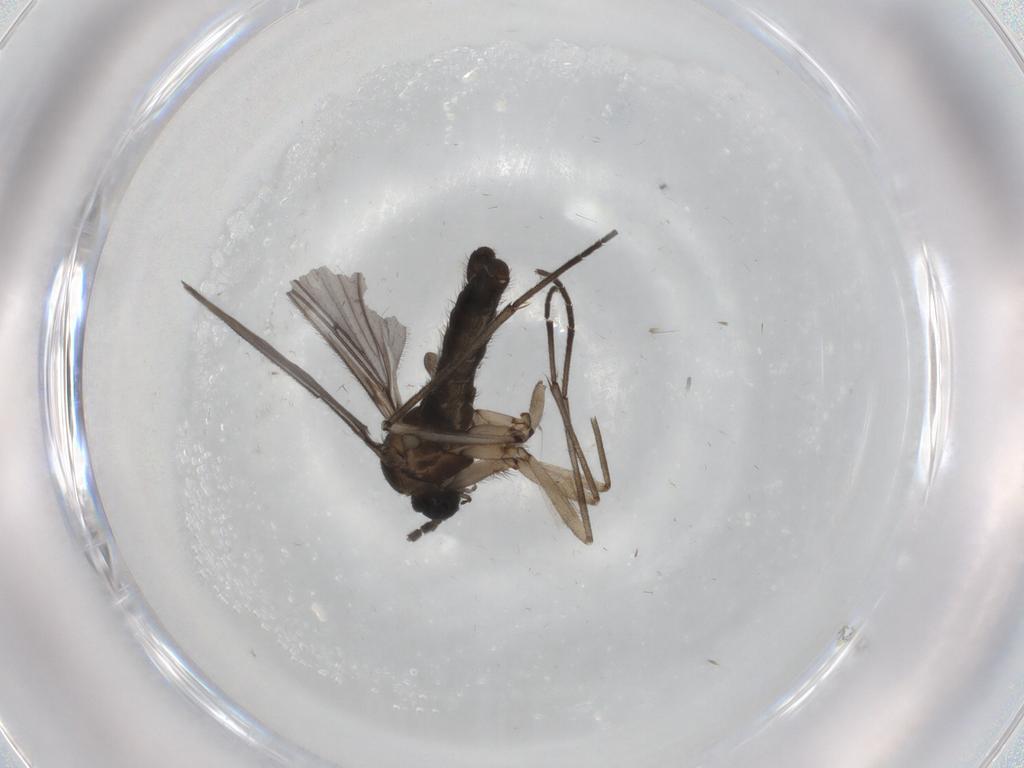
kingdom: Animalia
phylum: Arthropoda
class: Insecta
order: Diptera
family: Sciaridae
